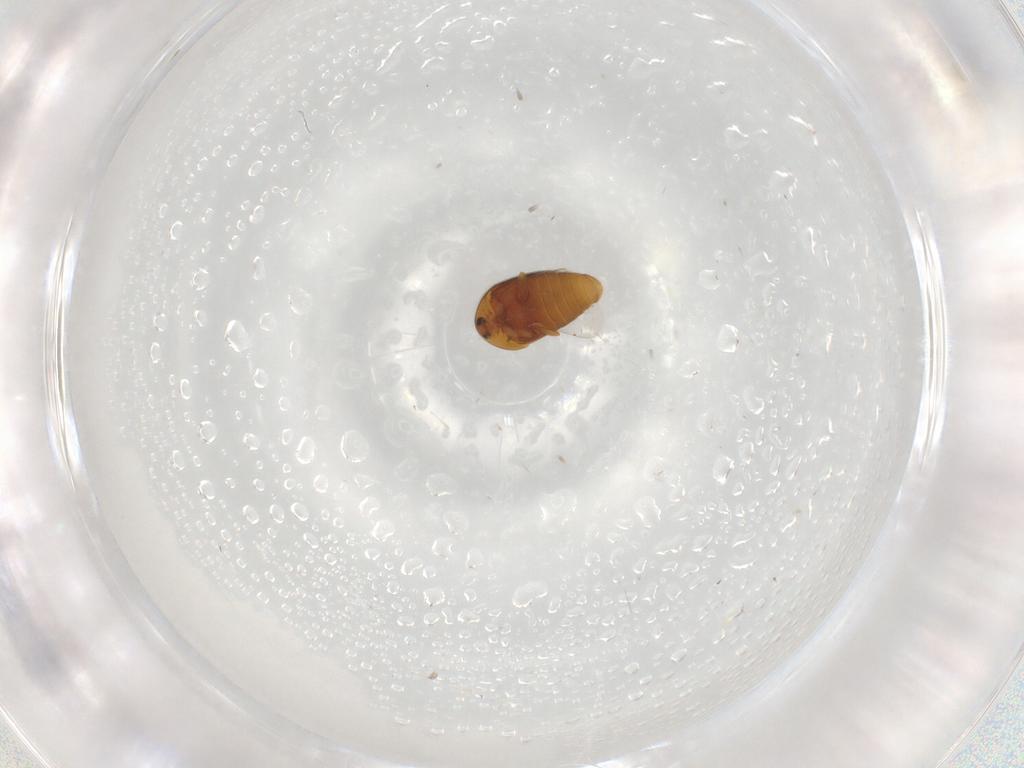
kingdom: Animalia
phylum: Arthropoda
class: Insecta
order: Coleoptera
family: Corylophidae
